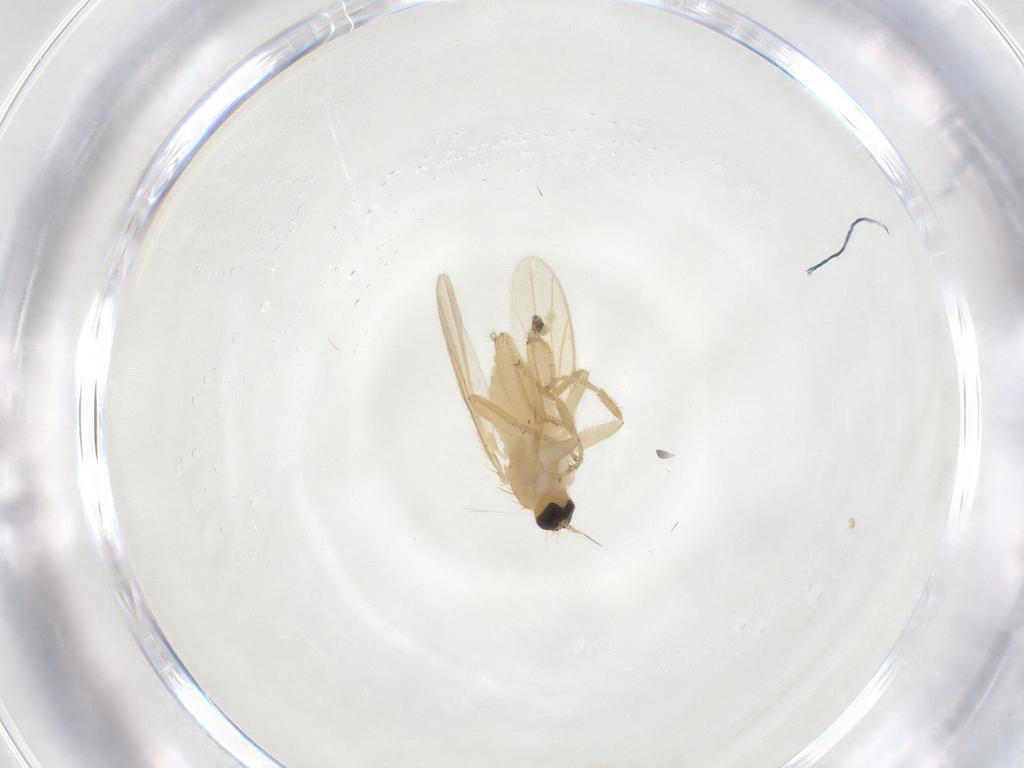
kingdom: Animalia
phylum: Arthropoda
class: Insecta
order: Diptera
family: Hybotidae
